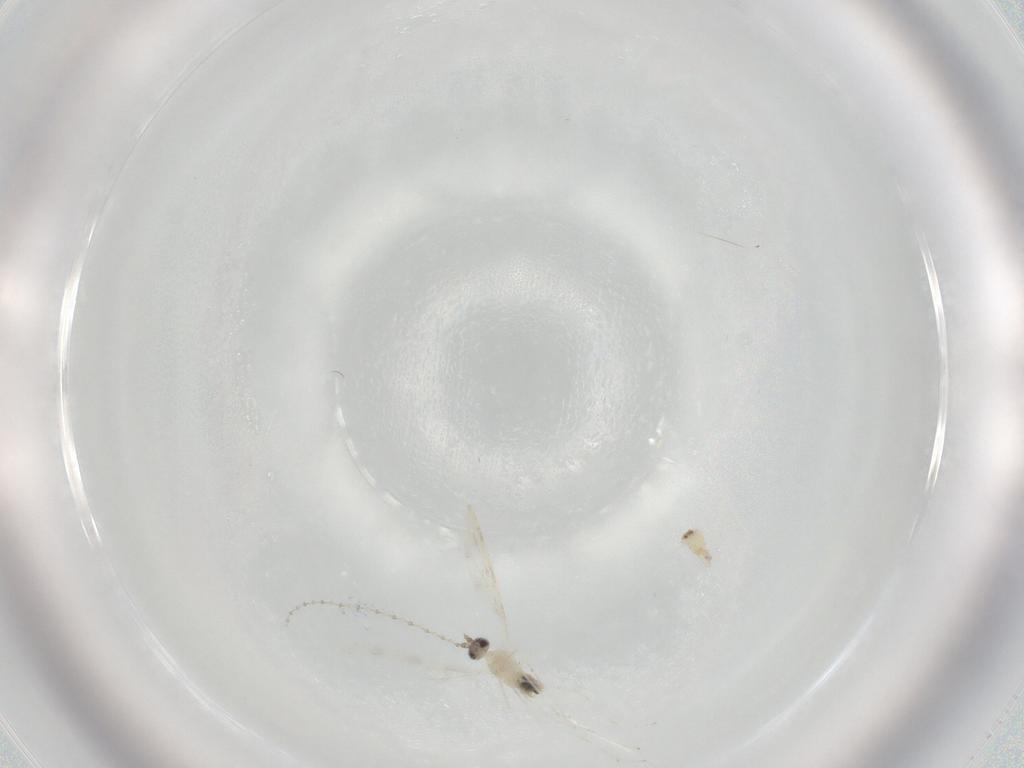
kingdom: Animalia
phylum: Arthropoda
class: Insecta
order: Diptera
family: Cecidomyiidae
